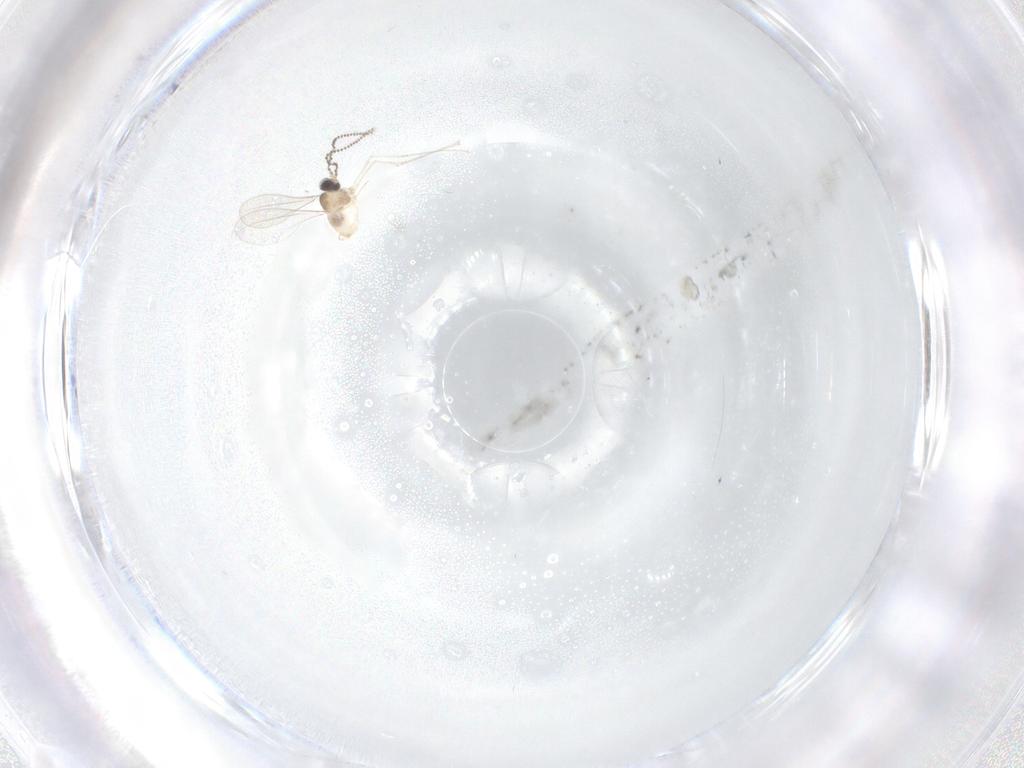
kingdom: Animalia
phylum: Arthropoda
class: Insecta
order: Diptera
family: Cecidomyiidae
